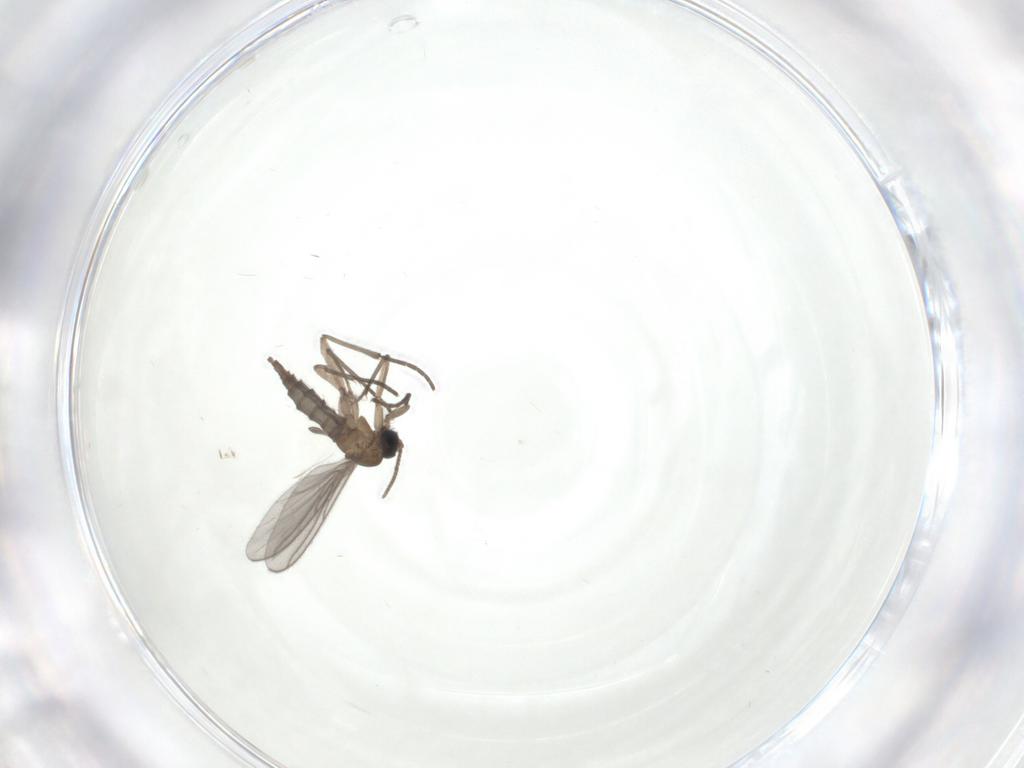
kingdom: Animalia
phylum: Arthropoda
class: Insecta
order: Diptera
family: Sciaridae
